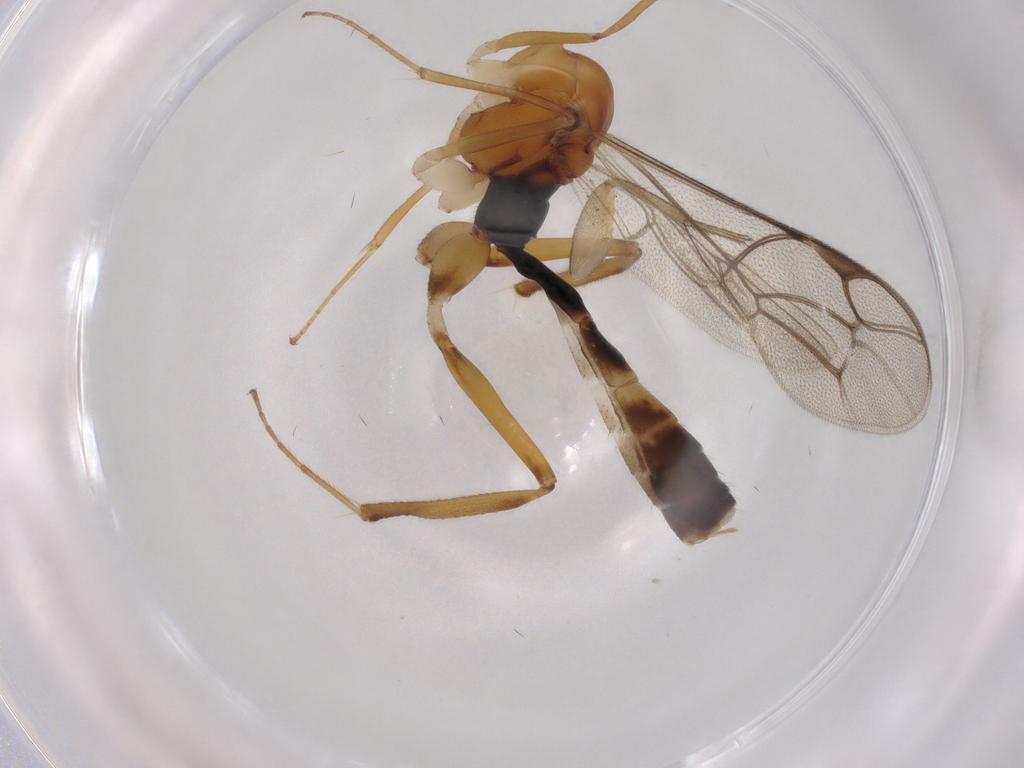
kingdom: Animalia
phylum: Arthropoda
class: Insecta
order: Hymenoptera
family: Ichneumonidae
